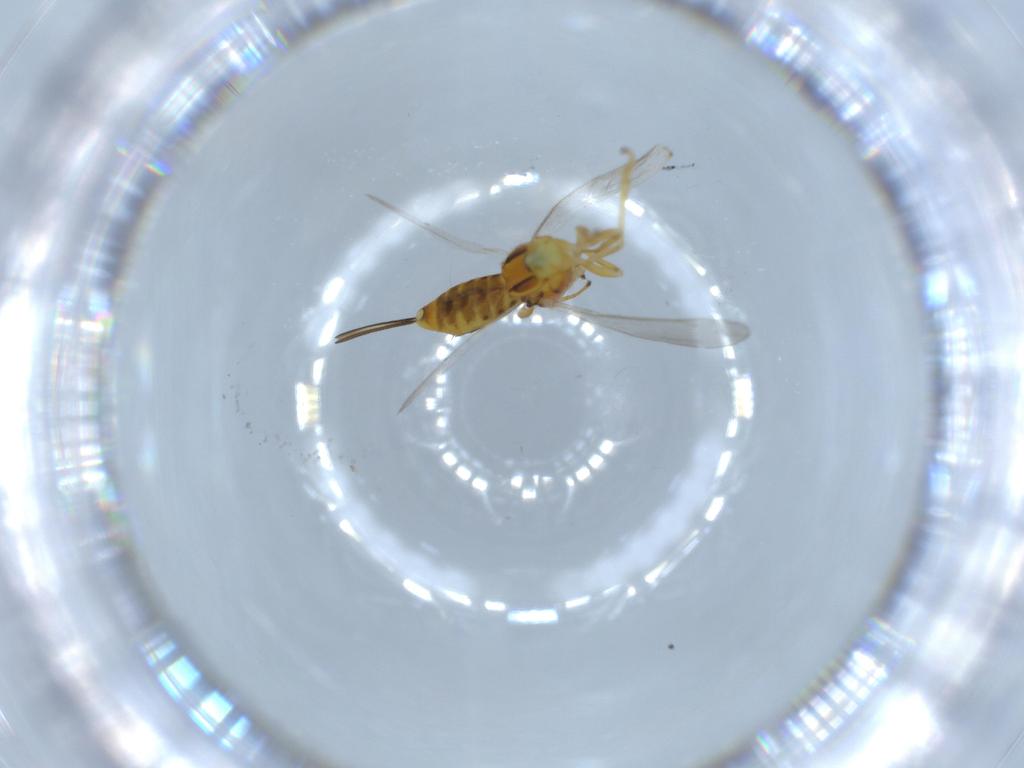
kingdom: Animalia
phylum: Arthropoda
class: Insecta
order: Hymenoptera
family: Eupelmidae
